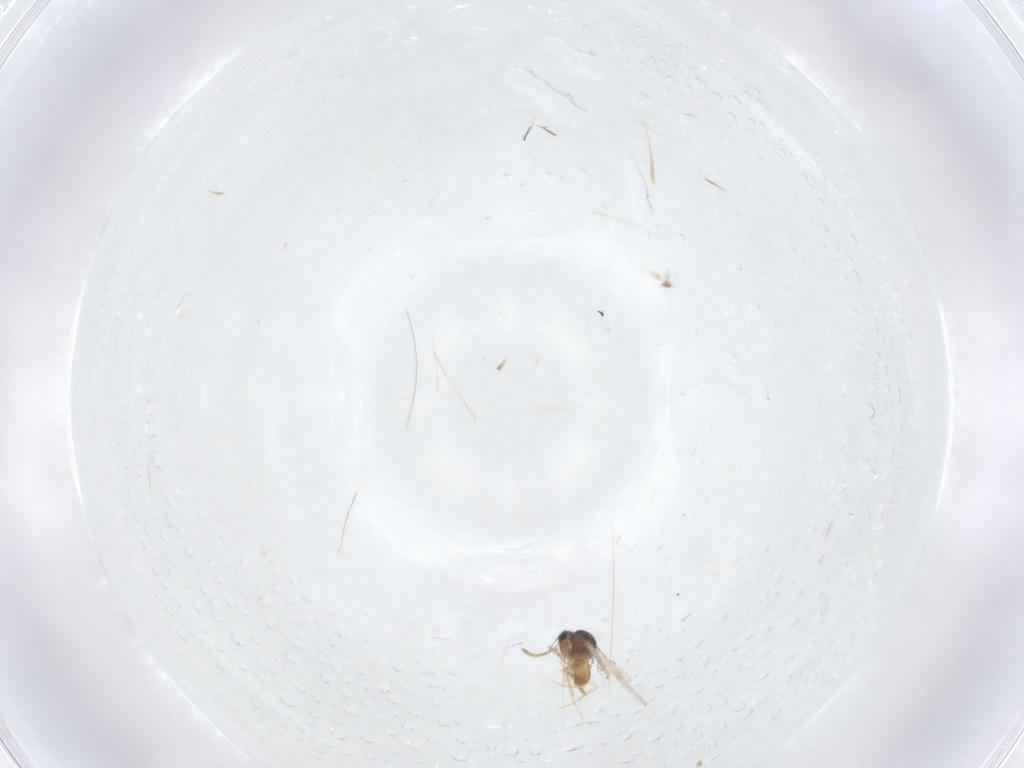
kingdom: Animalia
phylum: Arthropoda
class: Insecta
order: Hymenoptera
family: Scelionidae
